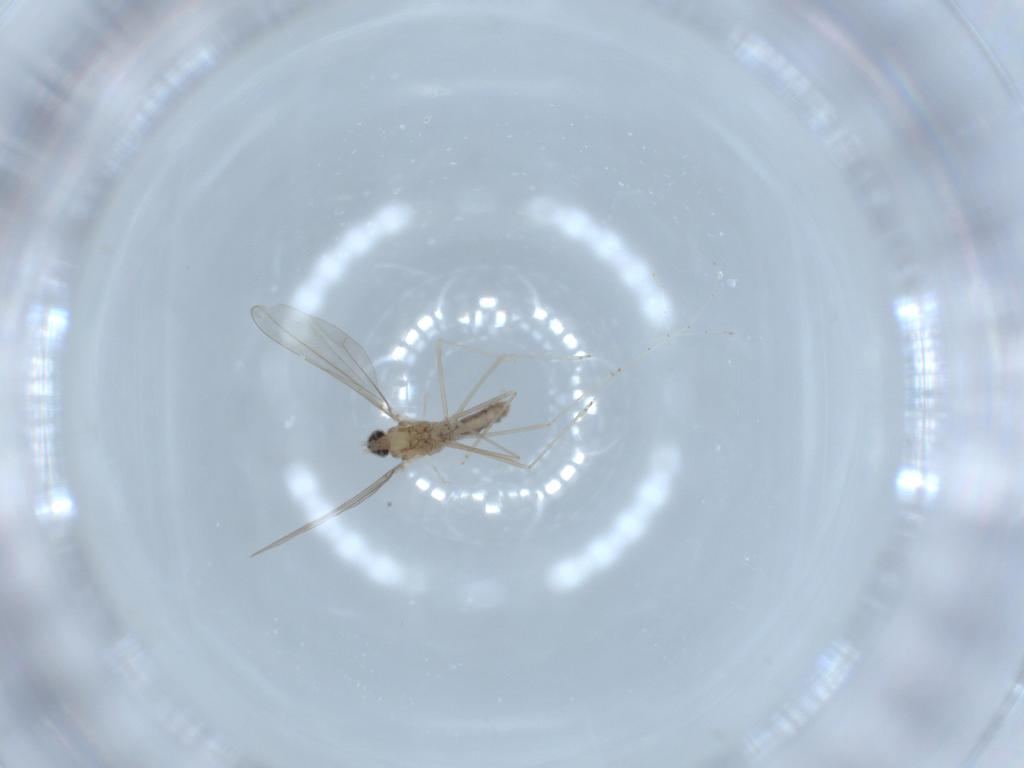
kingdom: Animalia
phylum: Arthropoda
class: Insecta
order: Diptera
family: Cecidomyiidae
